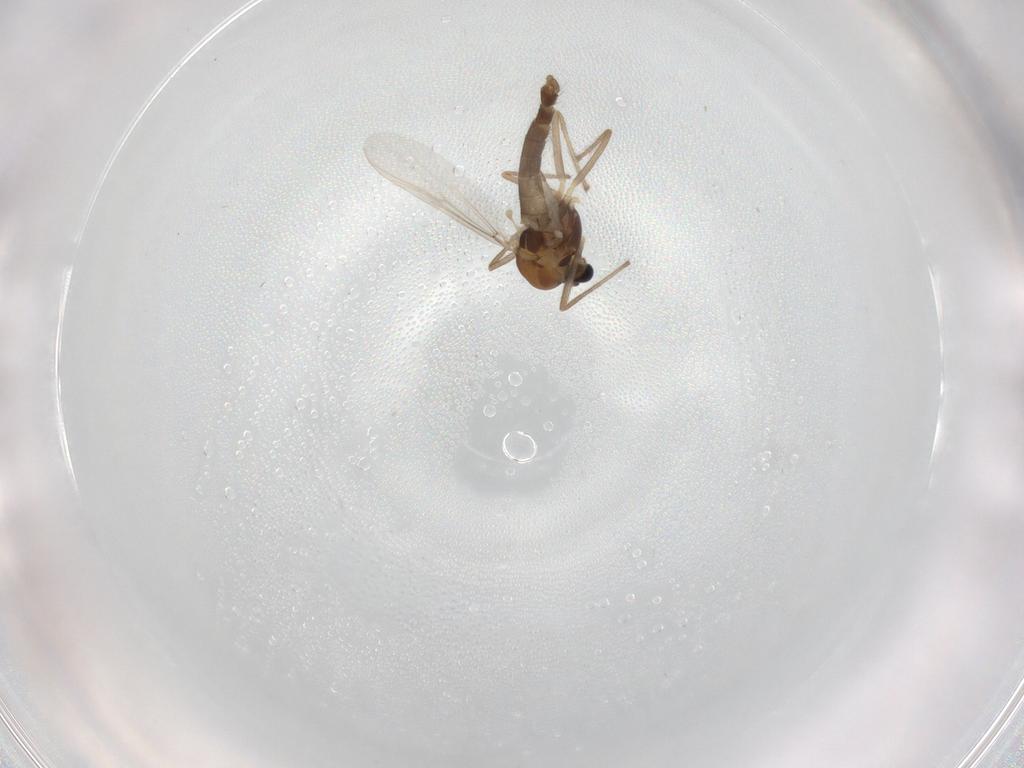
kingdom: Animalia
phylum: Arthropoda
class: Insecta
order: Diptera
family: Chironomidae
